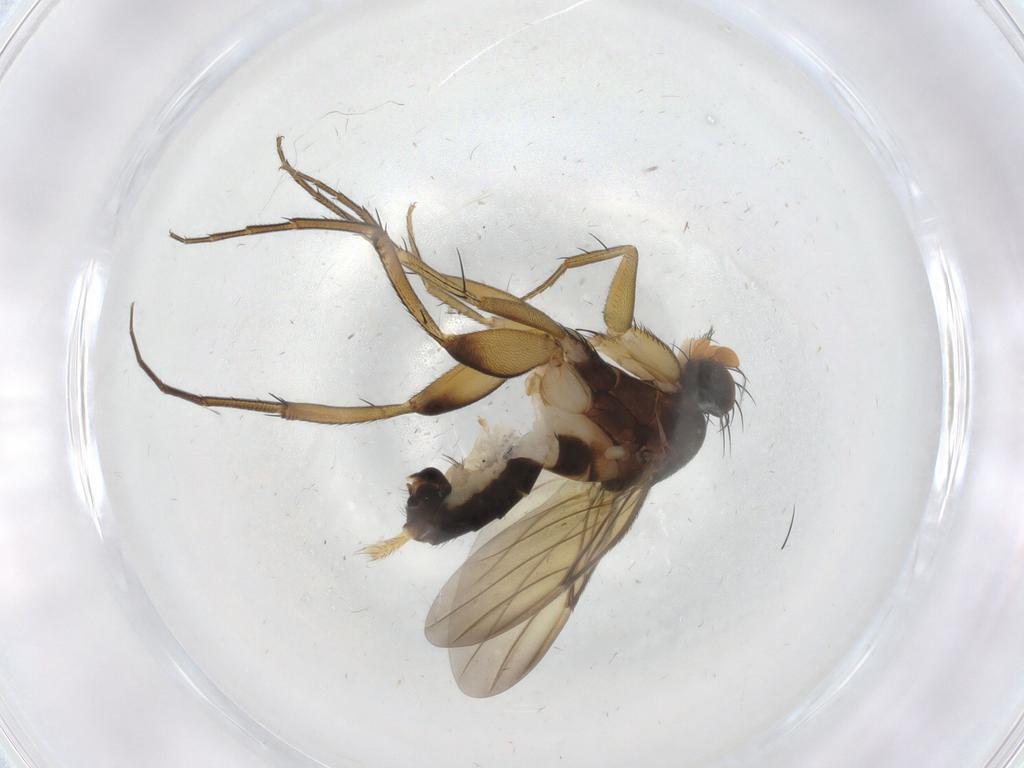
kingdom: Animalia
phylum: Arthropoda
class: Insecta
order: Diptera
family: Phoridae
